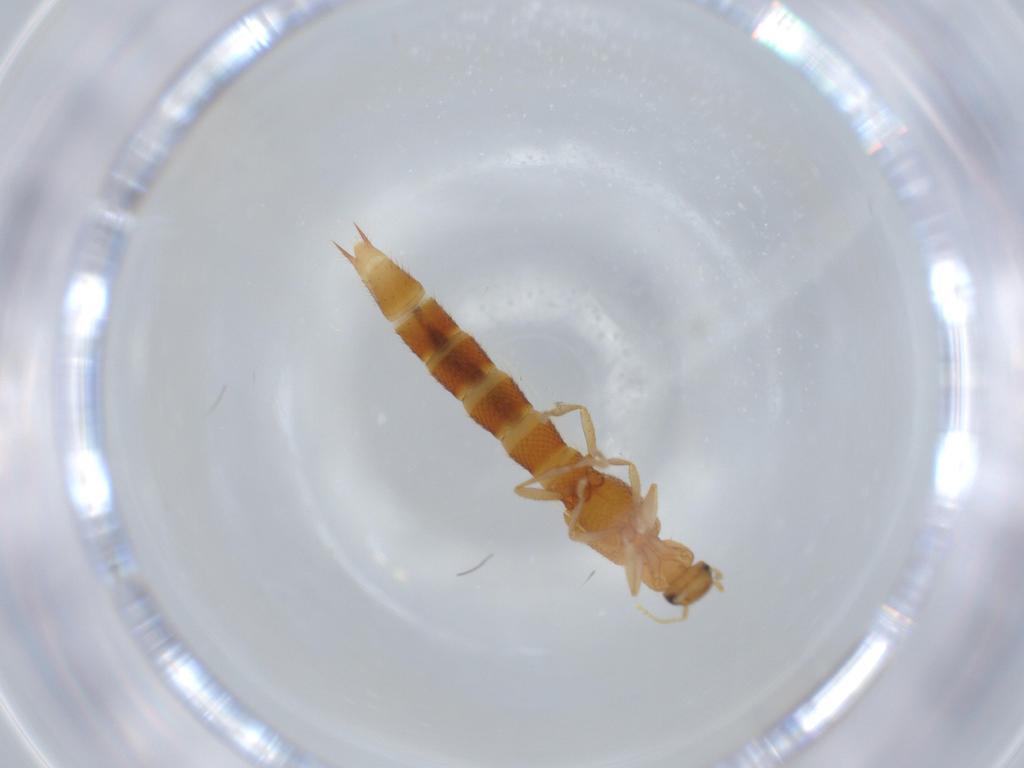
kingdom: Animalia
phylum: Arthropoda
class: Insecta
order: Coleoptera
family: Staphylinidae
